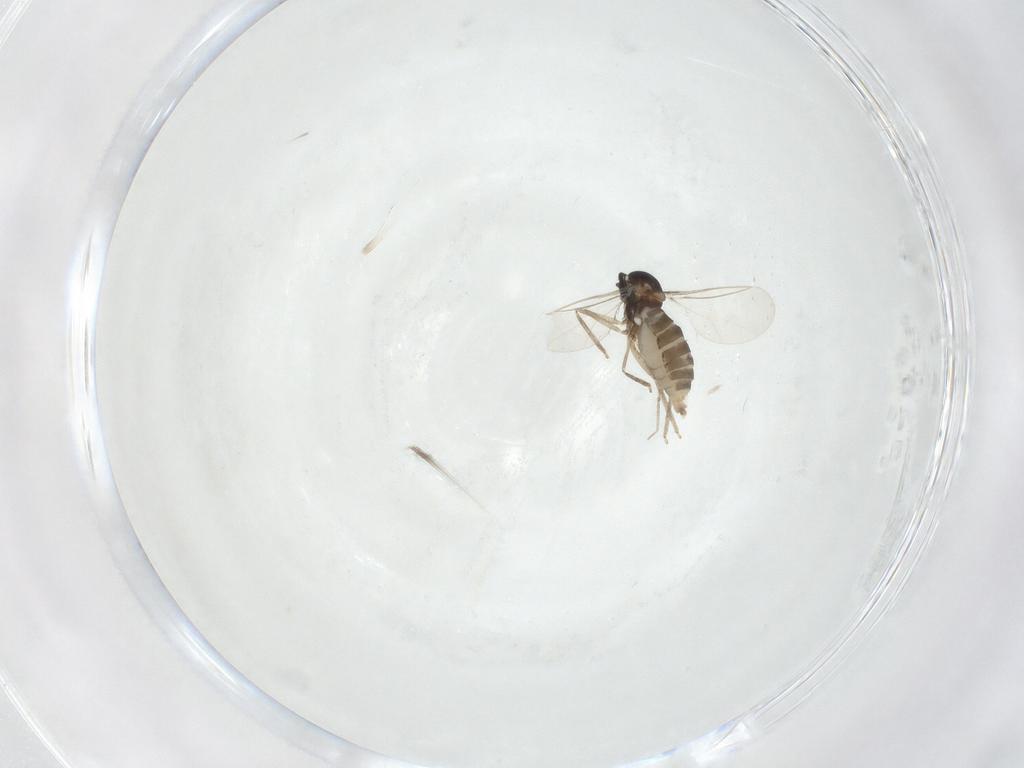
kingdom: Animalia
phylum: Arthropoda
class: Insecta
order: Diptera
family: Cecidomyiidae
